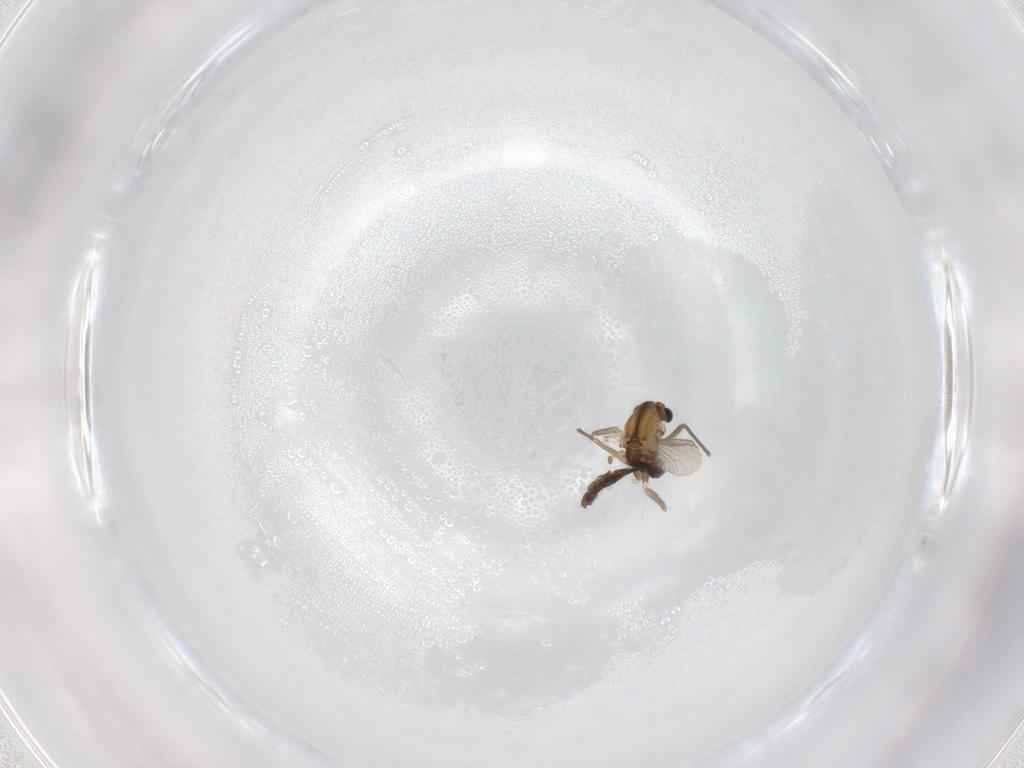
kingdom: Animalia
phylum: Arthropoda
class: Insecta
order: Diptera
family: Chironomidae
